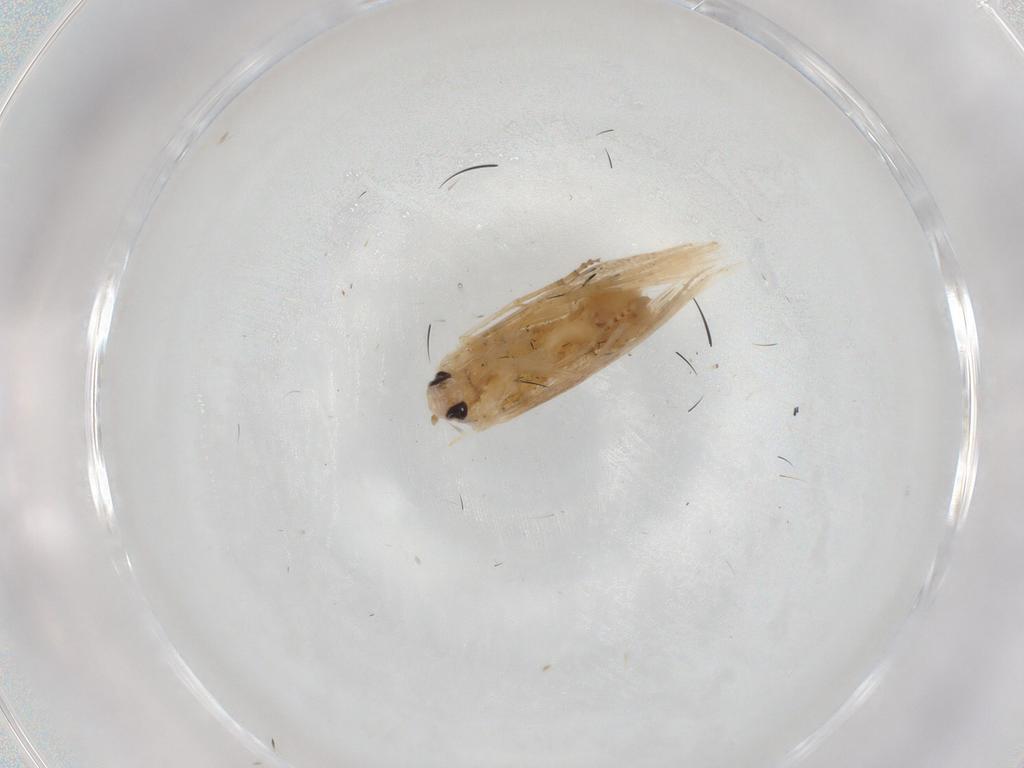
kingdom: Animalia
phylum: Arthropoda
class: Insecta
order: Lepidoptera
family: Noctuidae
